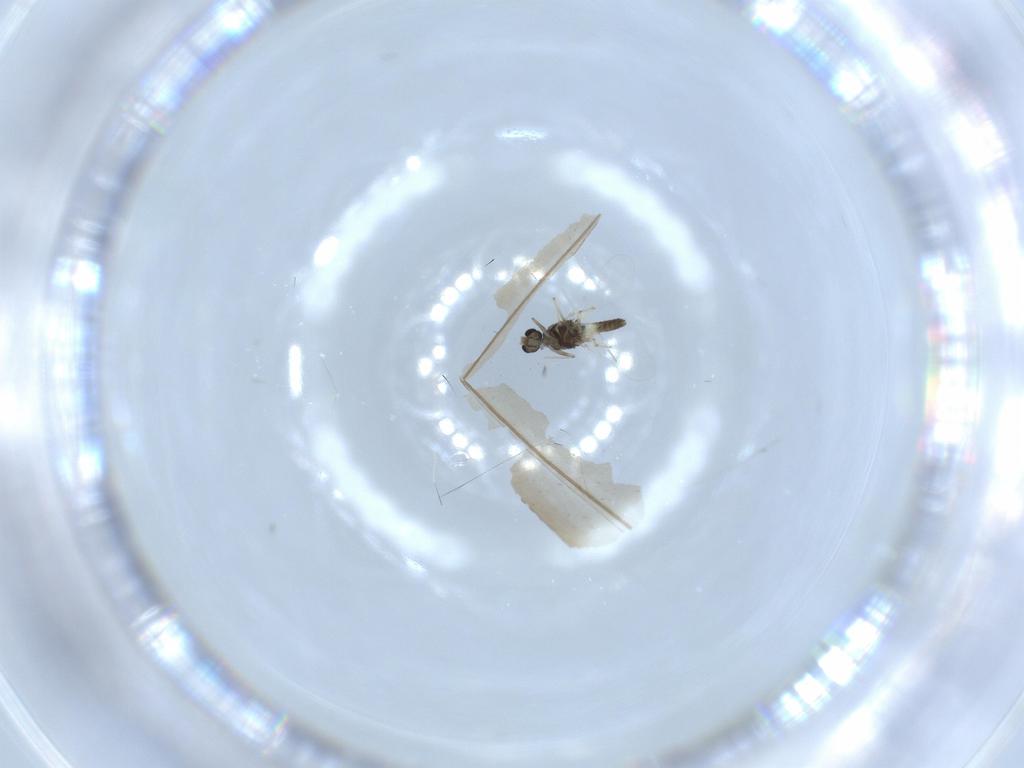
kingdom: Animalia
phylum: Arthropoda
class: Insecta
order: Diptera
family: Chironomidae
